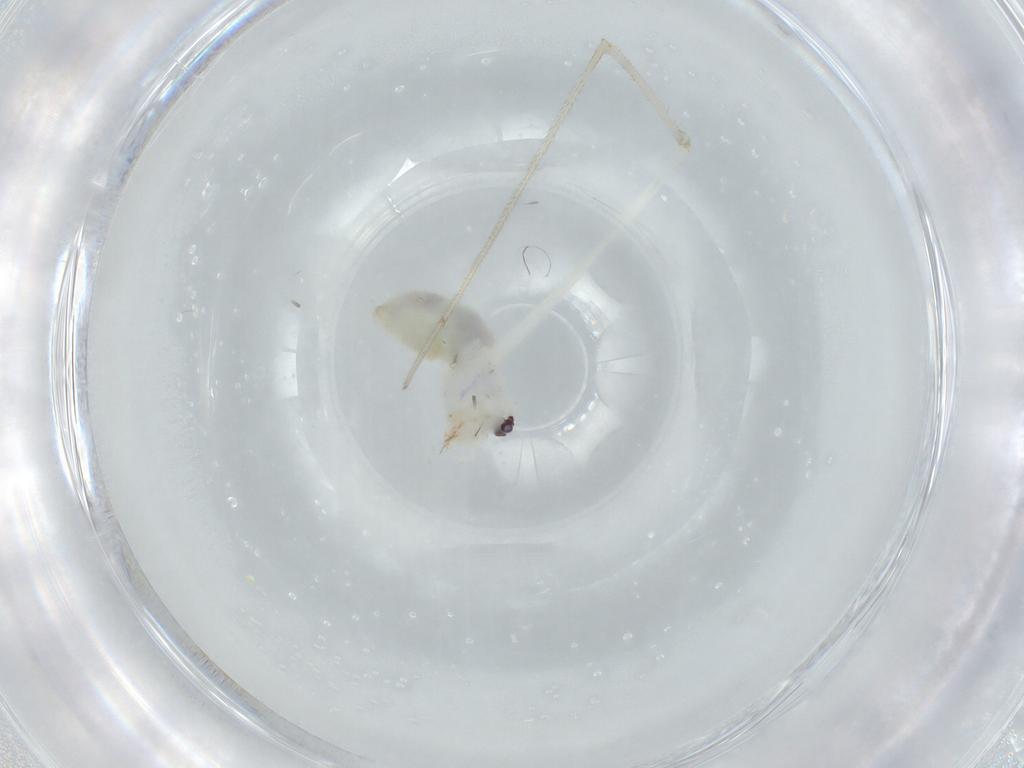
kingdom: Animalia
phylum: Arthropoda
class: Arachnida
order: Araneae
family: Pholcidae
